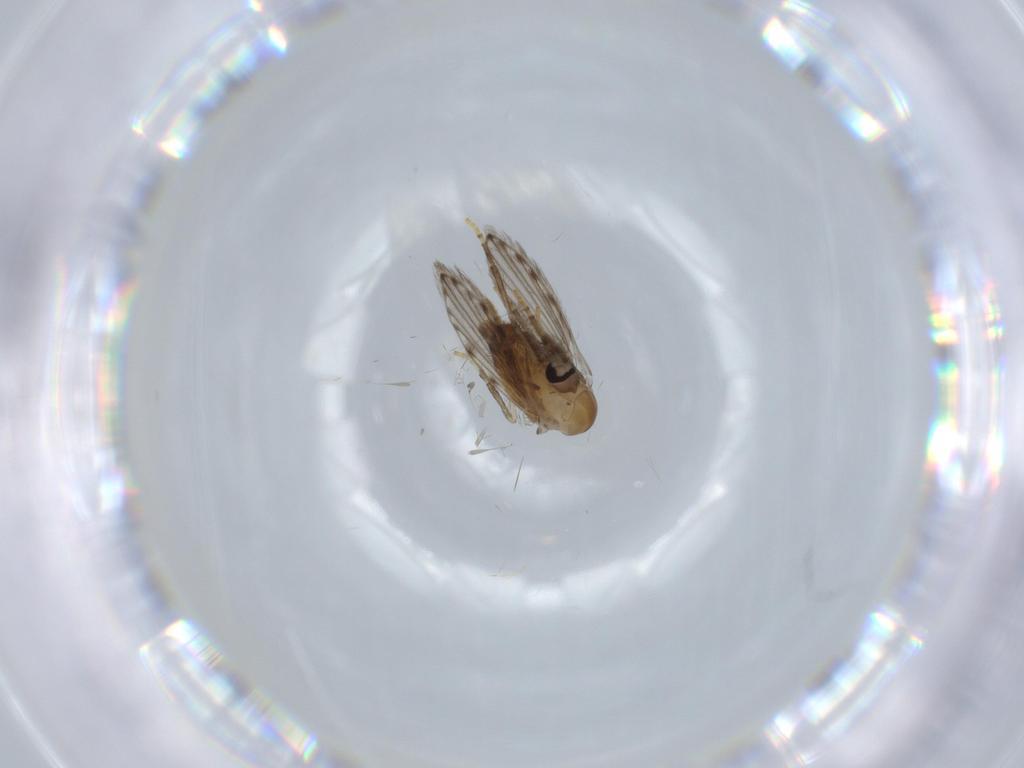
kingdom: Animalia
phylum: Arthropoda
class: Insecta
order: Diptera
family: Psychodidae
